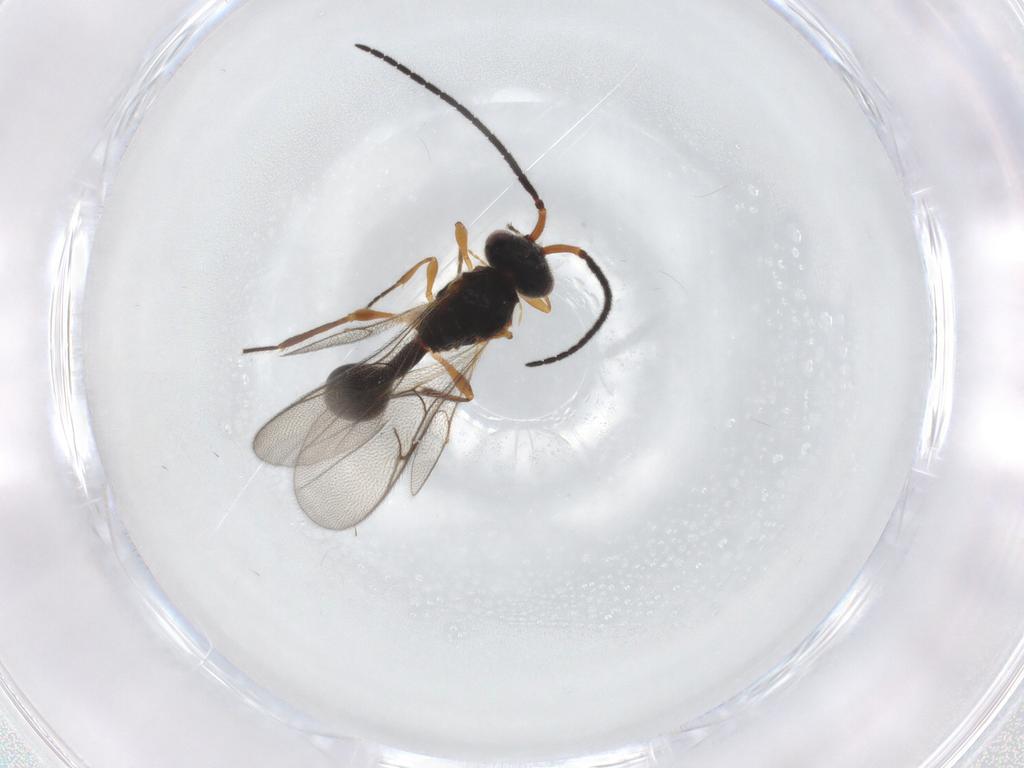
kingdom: Animalia
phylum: Arthropoda
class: Insecta
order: Hymenoptera
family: Diapriidae
